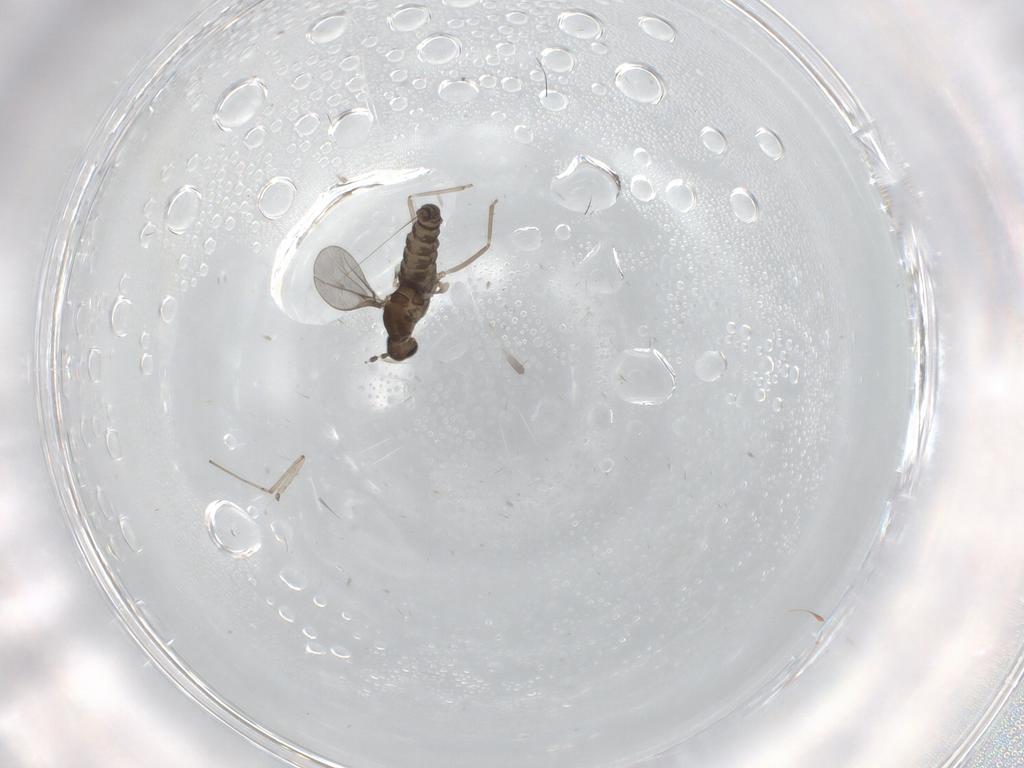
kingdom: Animalia
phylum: Arthropoda
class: Insecta
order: Diptera
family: Cecidomyiidae
